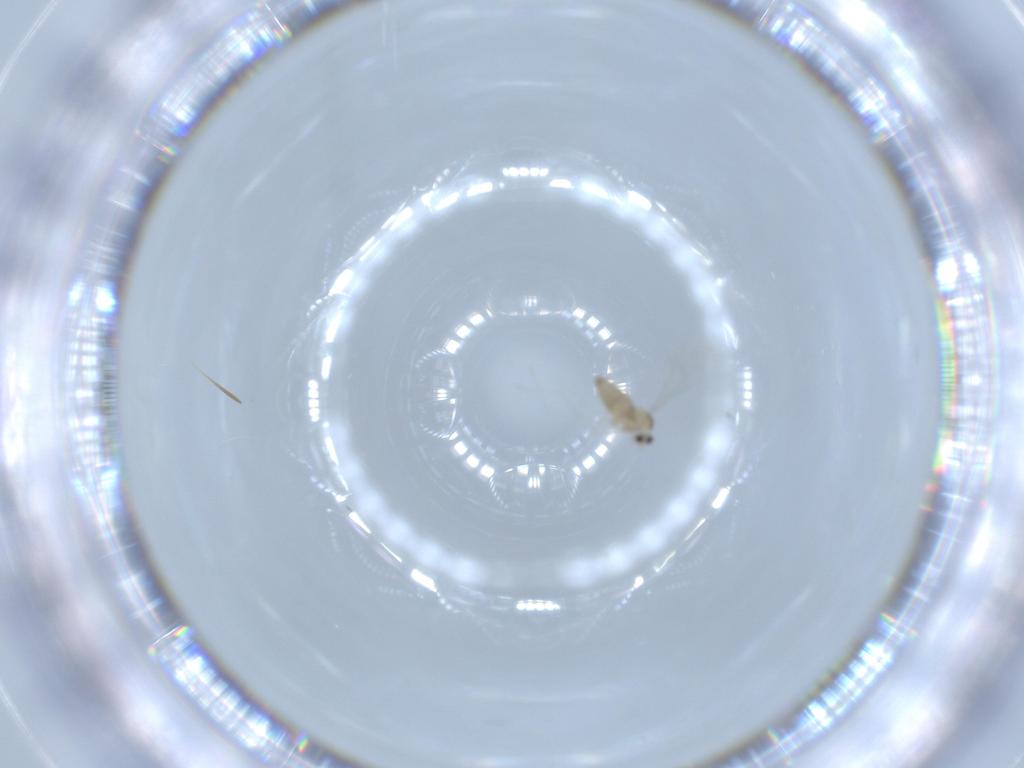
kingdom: Animalia
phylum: Arthropoda
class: Insecta
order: Diptera
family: Cecidomyiidae
